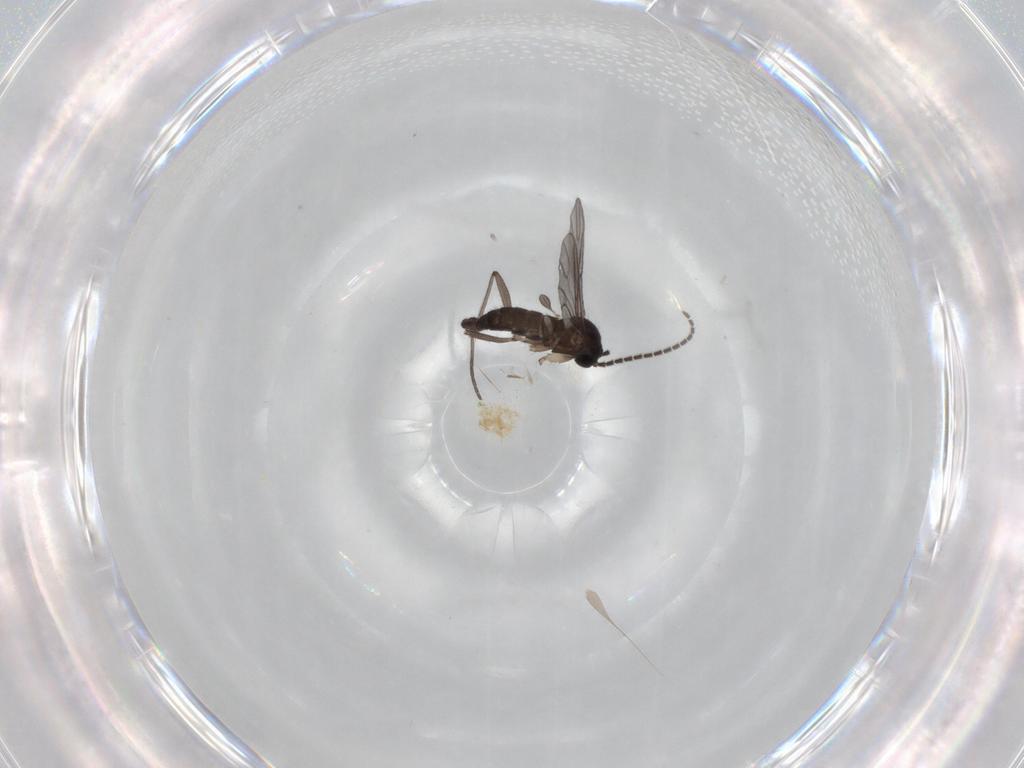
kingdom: Animalia
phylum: Arthropoda
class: Insecta
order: Diptera
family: Sciaridae
